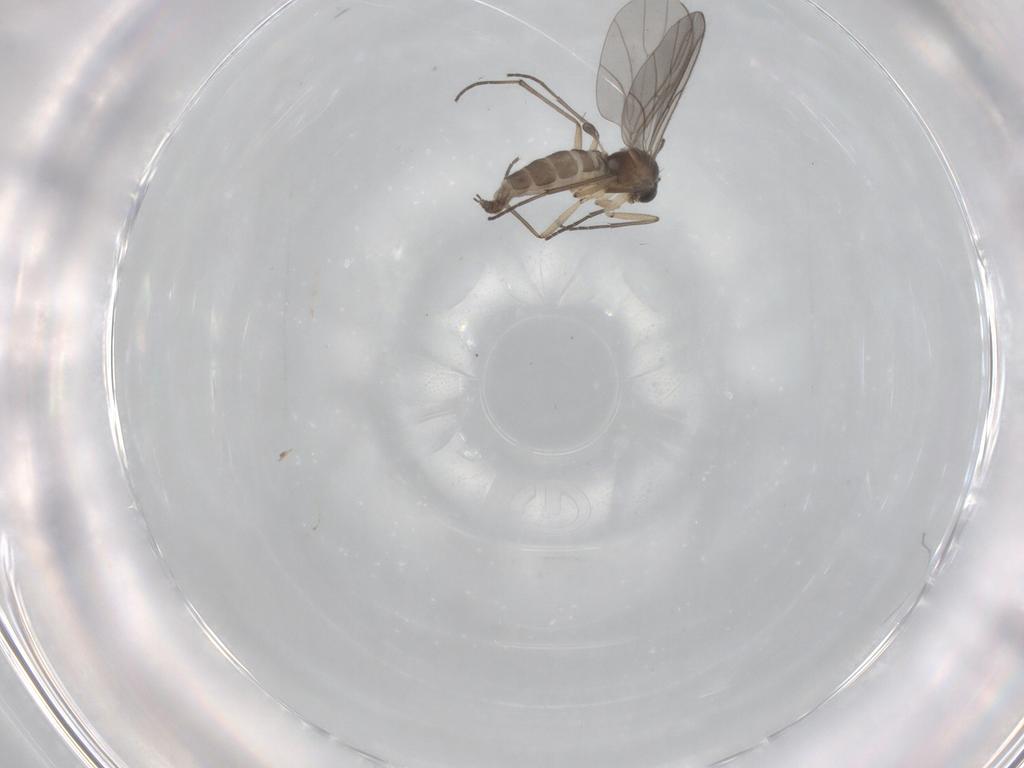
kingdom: Animalia
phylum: Arthropoda
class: Insecta
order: Diptera
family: Sciaridae
